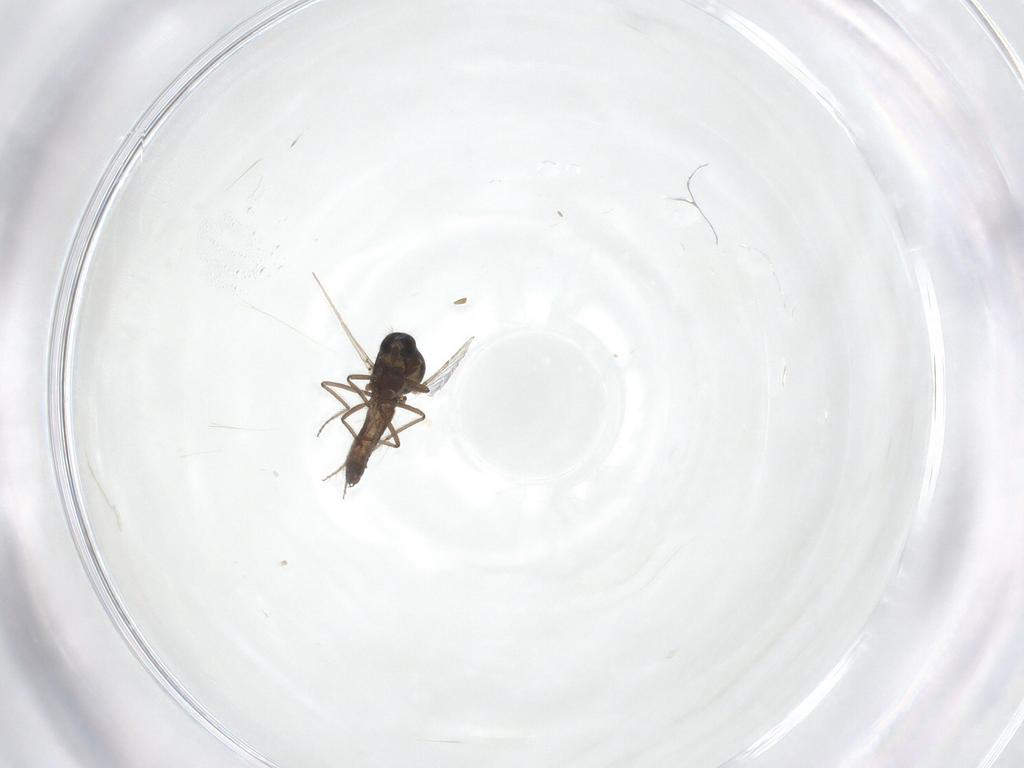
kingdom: Animalia
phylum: Arthropoda
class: Insecta
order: Diptera
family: Ceratopogonidae
